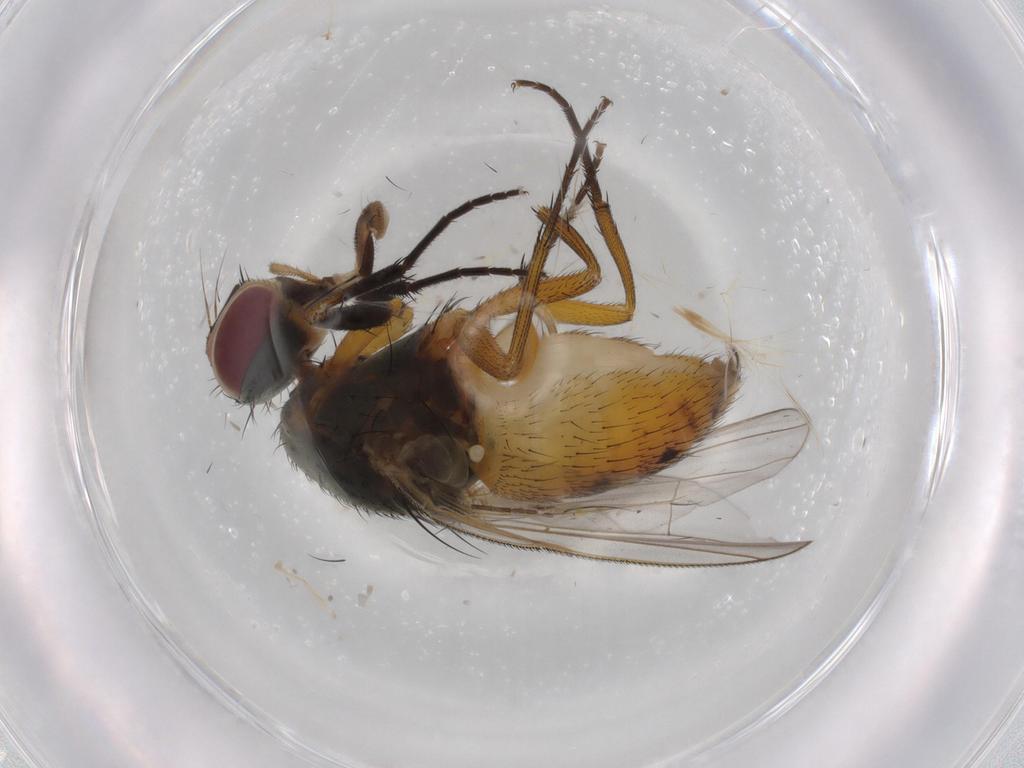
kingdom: Animalia
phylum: Arthropoda
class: Insecta
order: Diptera
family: Muscidae
